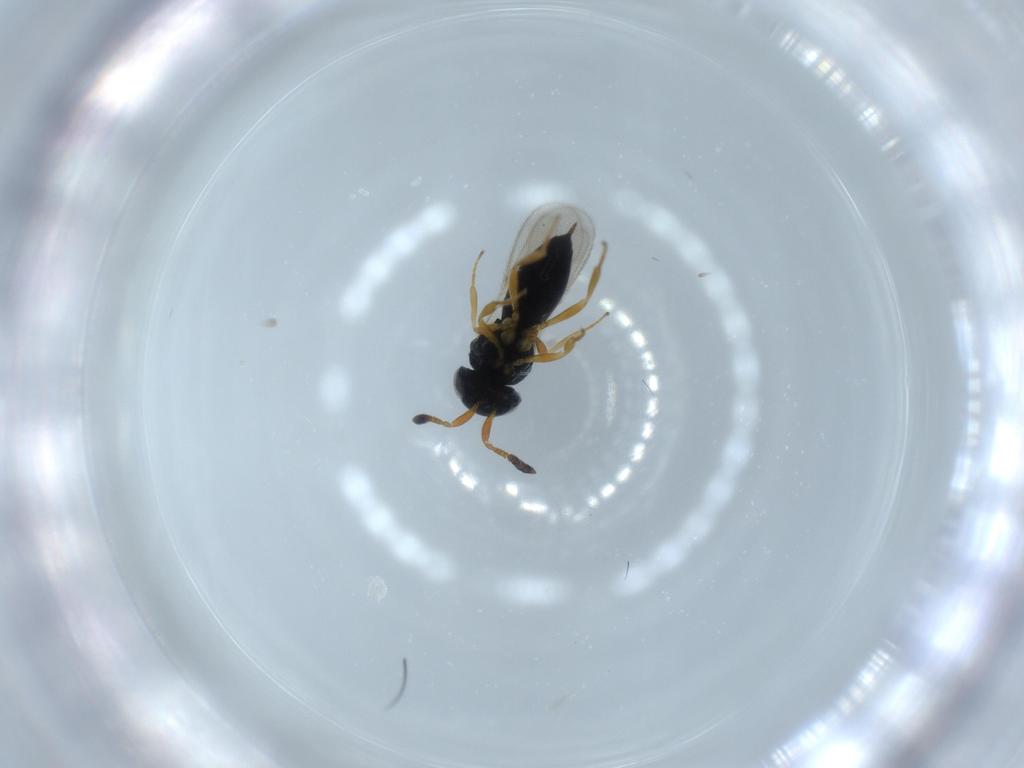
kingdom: Animalia
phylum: Arthropoda
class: Insecta
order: Hymenoptera
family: Scelionidae
